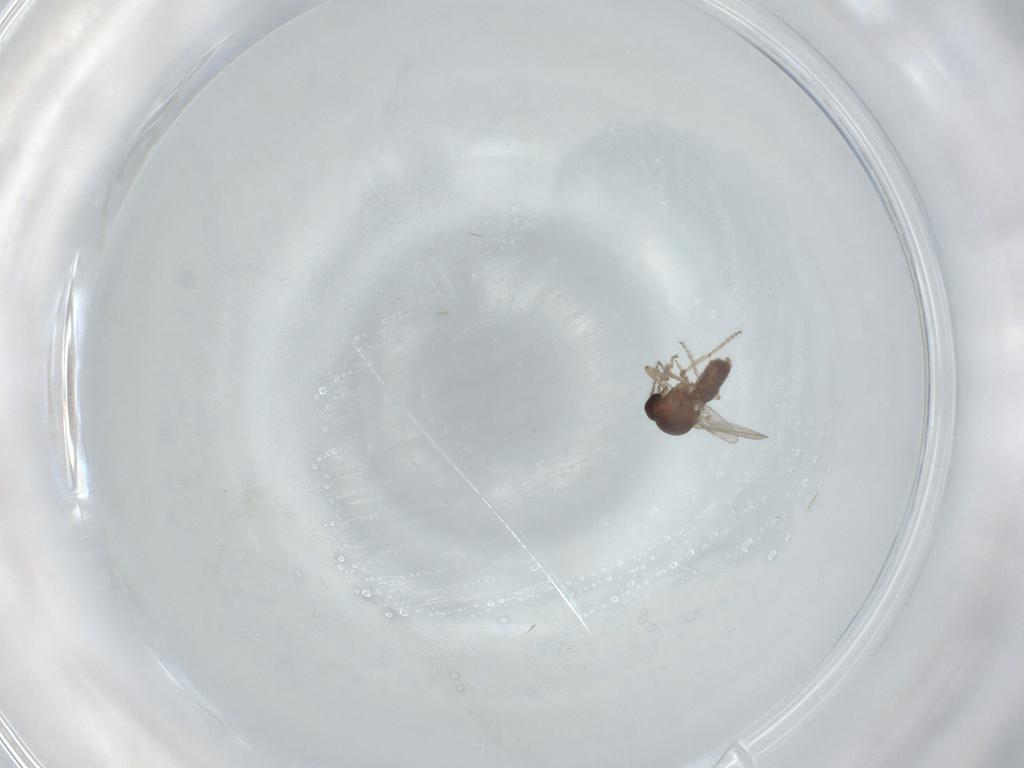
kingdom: Animalia
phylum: Arthropoda
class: Insecta
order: Diptera
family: Ceratopogonidae
